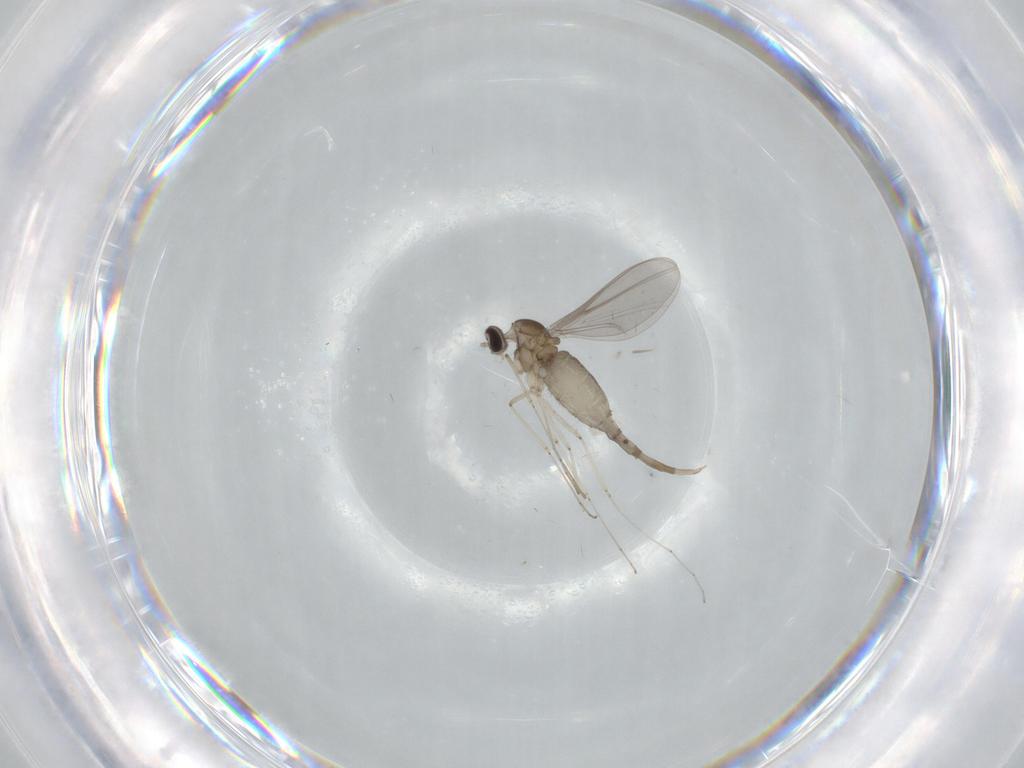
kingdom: Animalia
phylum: Arthropoda
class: Insecta
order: Diptera
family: Cecidomyiidae
